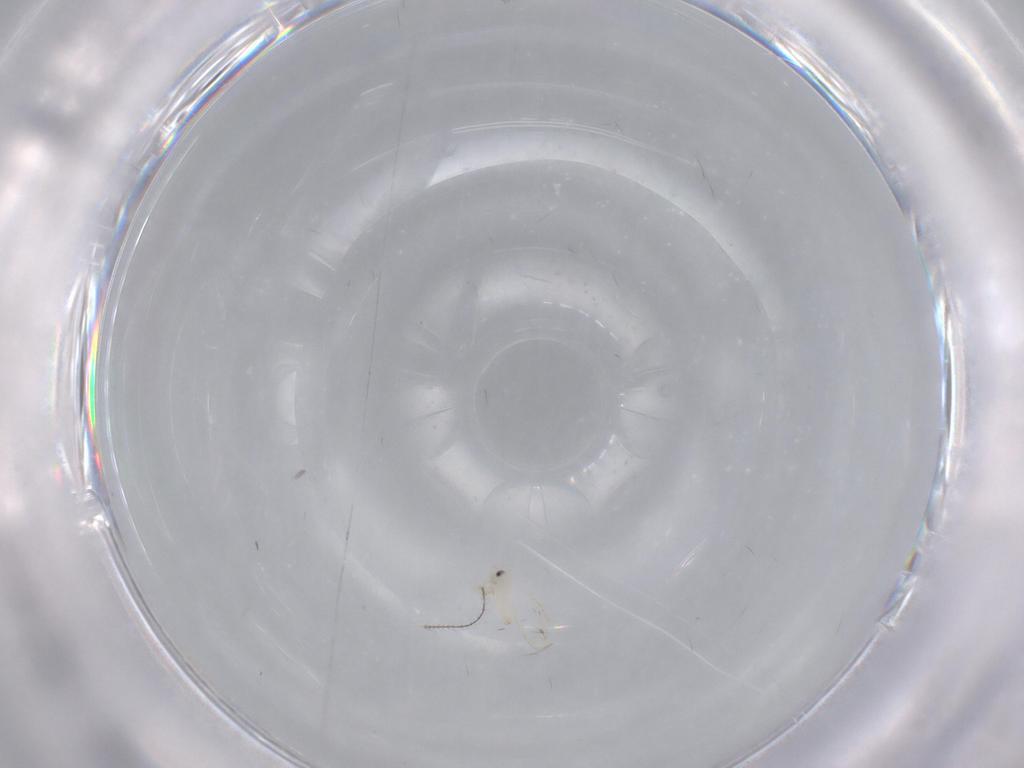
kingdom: Animalia
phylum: Arthropoda
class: Insecta
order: Hemiptera
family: Aleyrodidae
